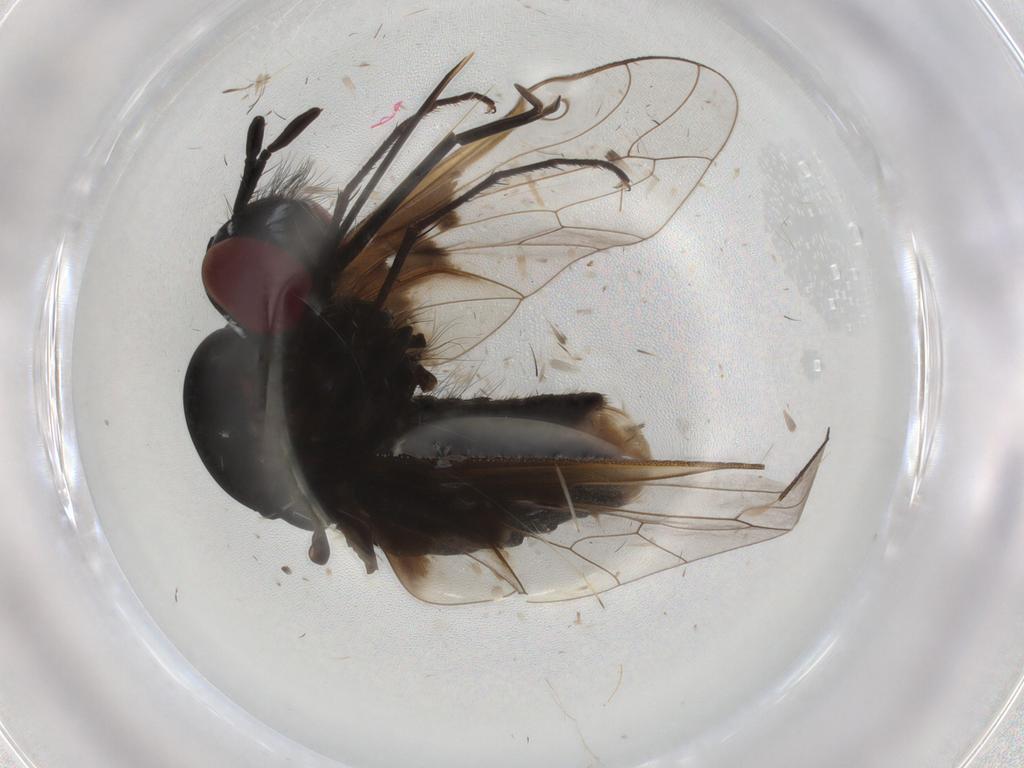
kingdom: Animalia
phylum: Arthropoda
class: Insecta
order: Diptera
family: Bombyliidae
